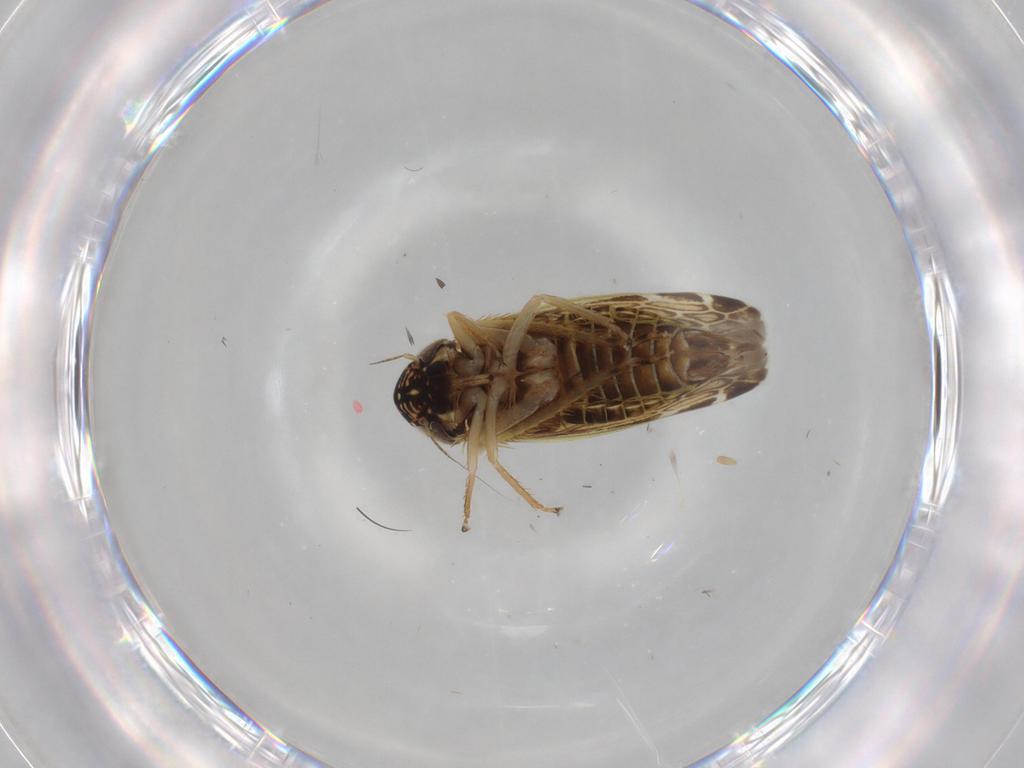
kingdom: Animalia
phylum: Arthropoda
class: Insecta
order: Hemiptera
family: Cicadellidae
